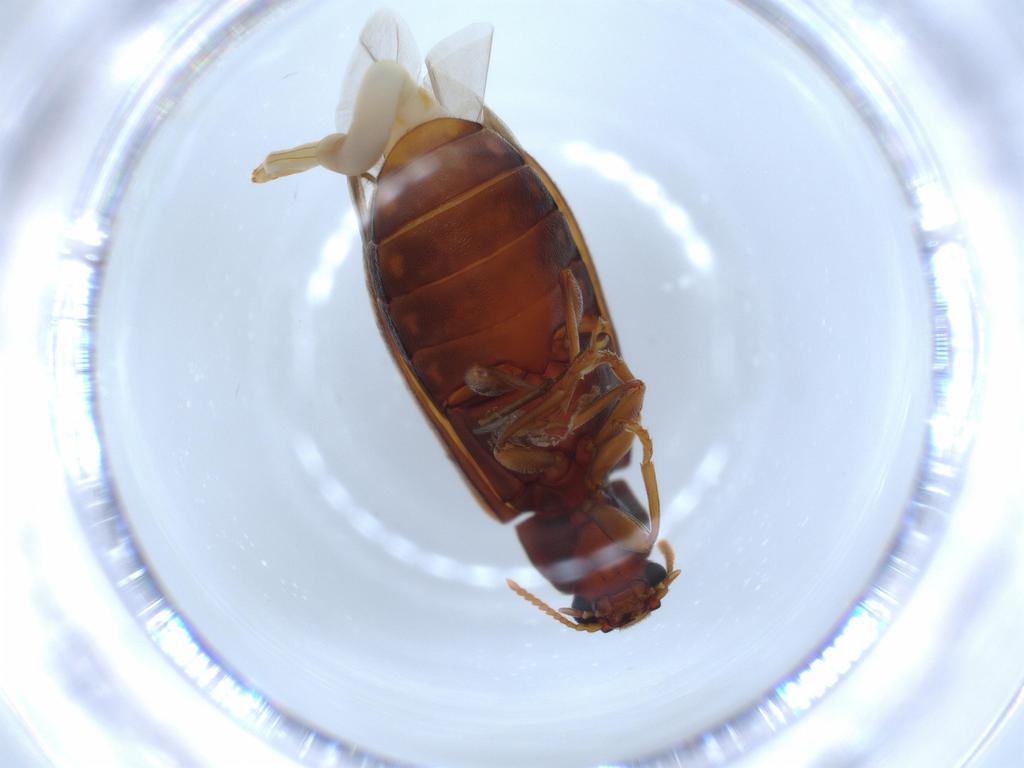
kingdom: Animalia
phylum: Arthropoda
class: Insecta
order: Coleoptera
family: Mycteridae
